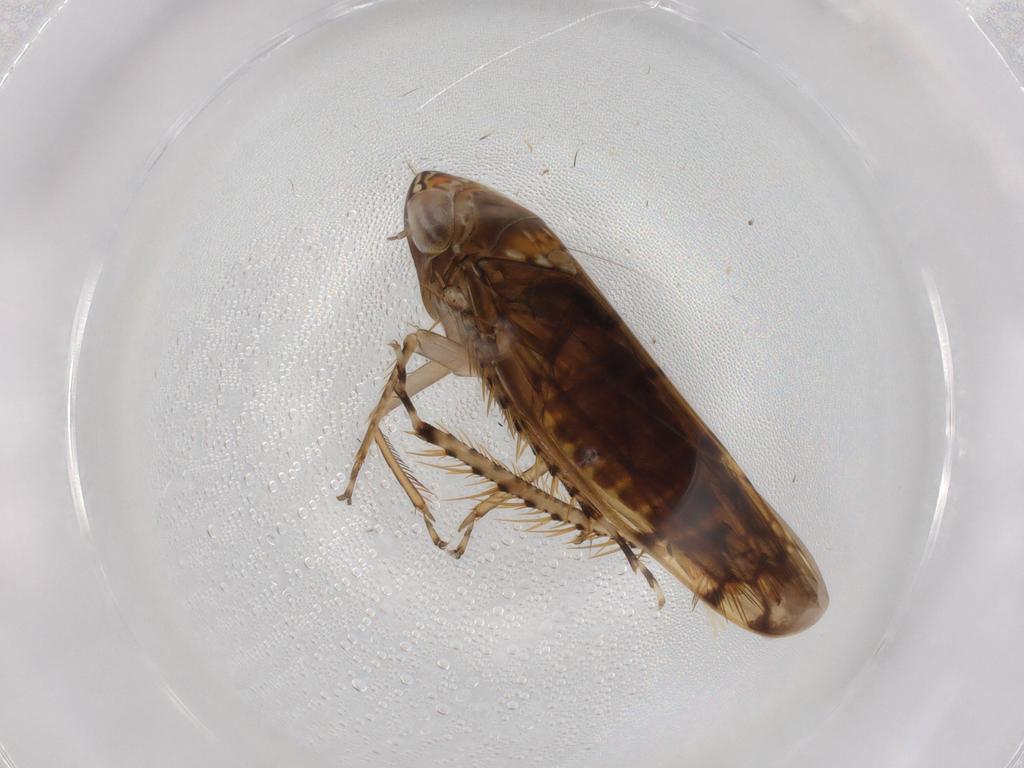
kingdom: Animalia
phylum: Arthropoda
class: Insecta
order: Hemiptera
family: Cicadellidae
